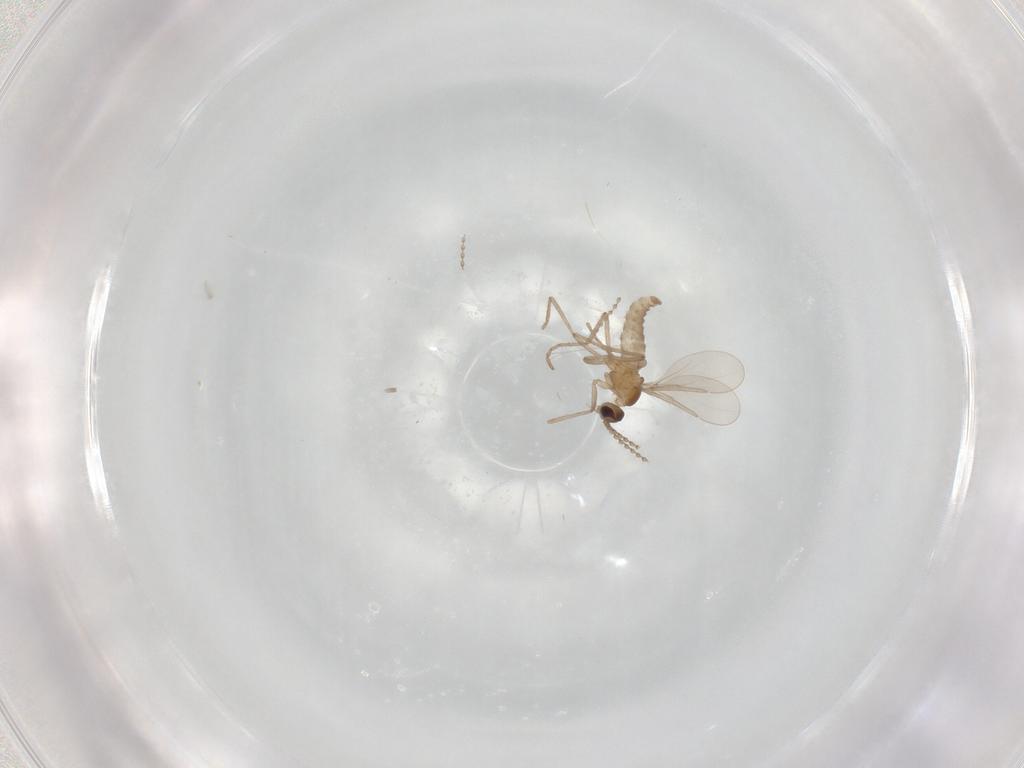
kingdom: Animalia
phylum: Arthropoda
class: Insecta
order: Diptera
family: Cecidomyiidae
